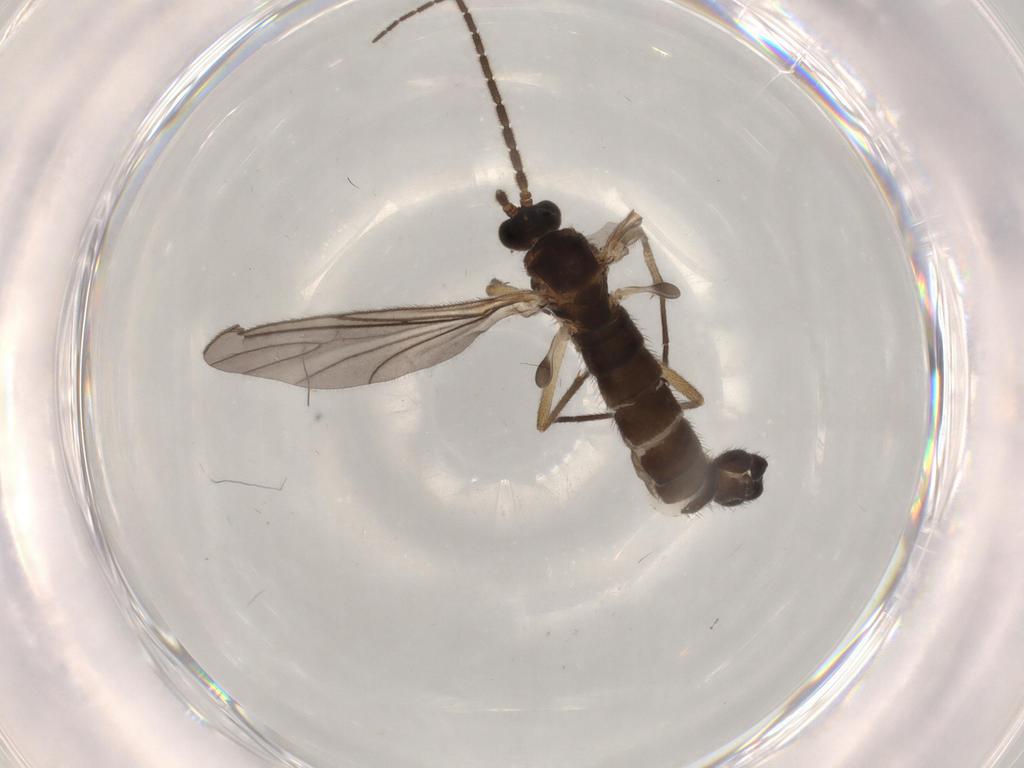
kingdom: Animalia
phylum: Arthropoda
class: Insecta
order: Diptera
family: Sciaridae
